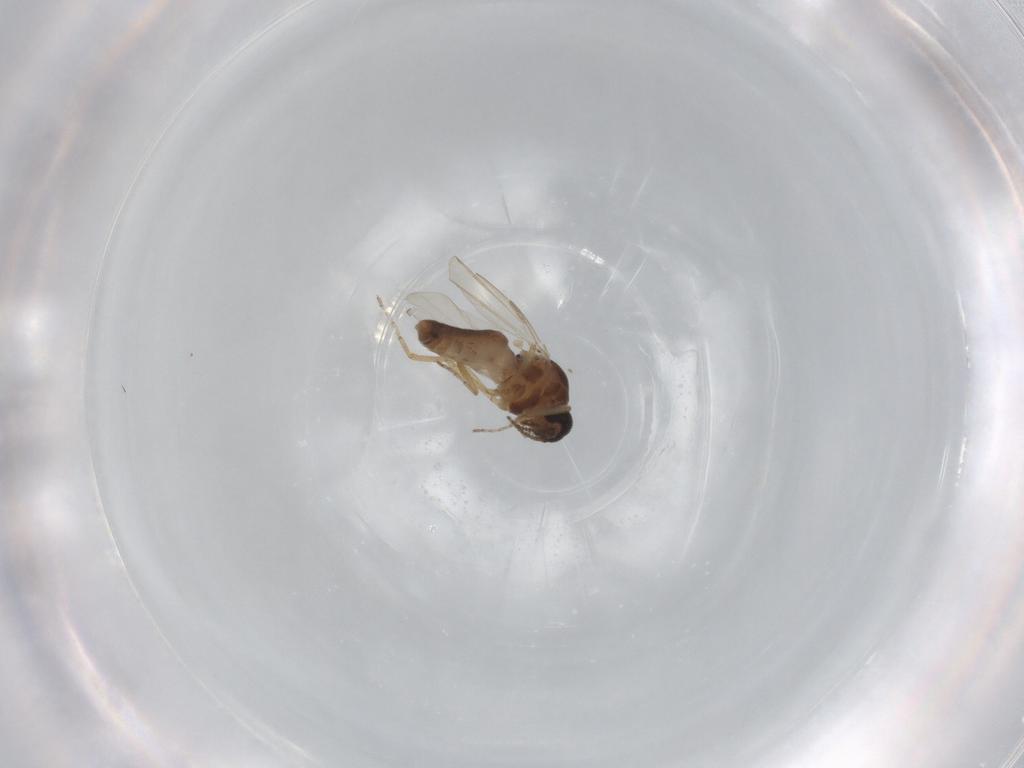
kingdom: Animalia
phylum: Arthropoda
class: Insecta
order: Diptera
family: Ceratopogonidae
